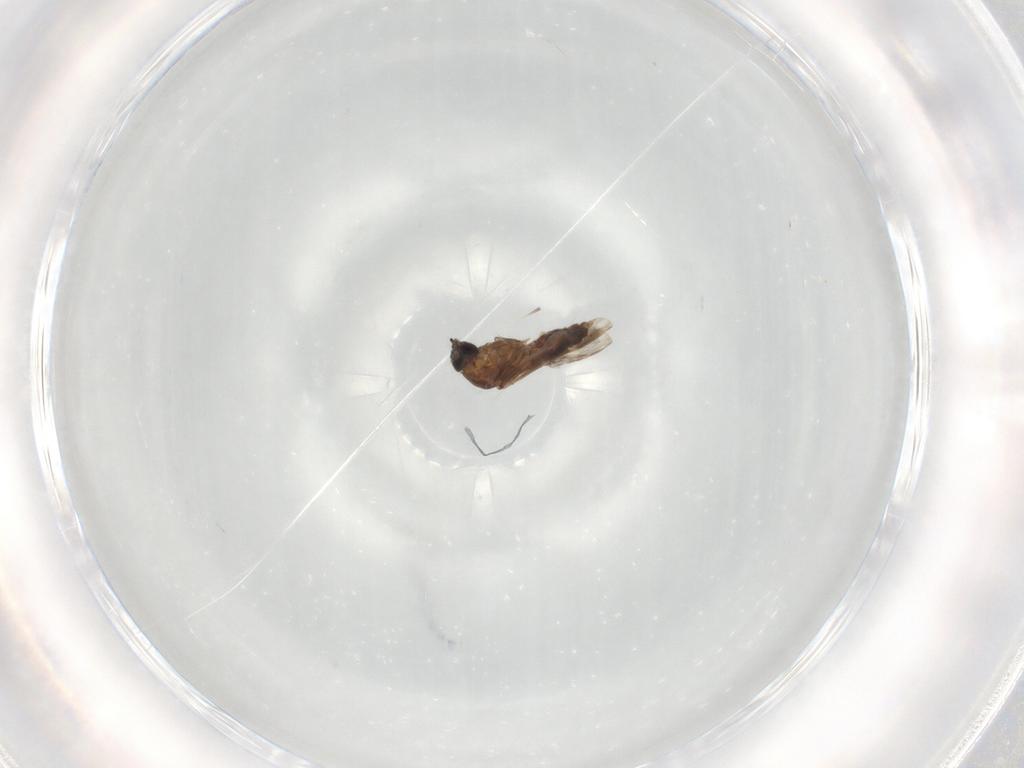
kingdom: Animalia
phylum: Arthropoda
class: Insecta
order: Diptera
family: Ceratopogonidae
